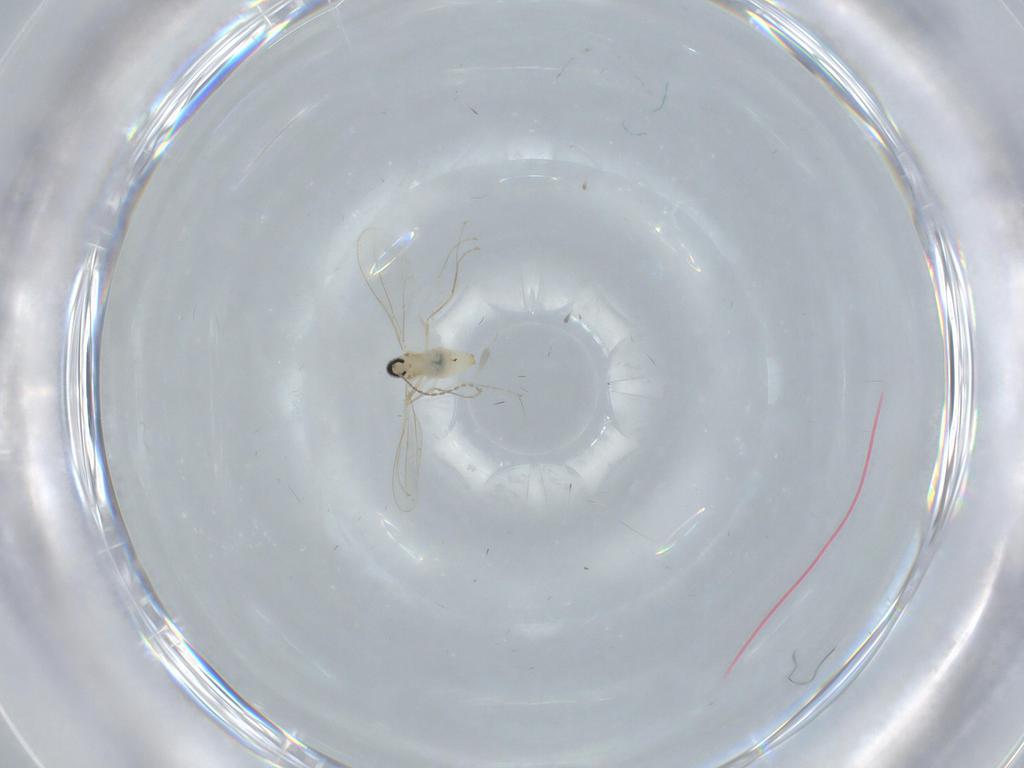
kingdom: Animalia
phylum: Arthropoda
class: Insecta
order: Diptera
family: Cecidomyiidae
